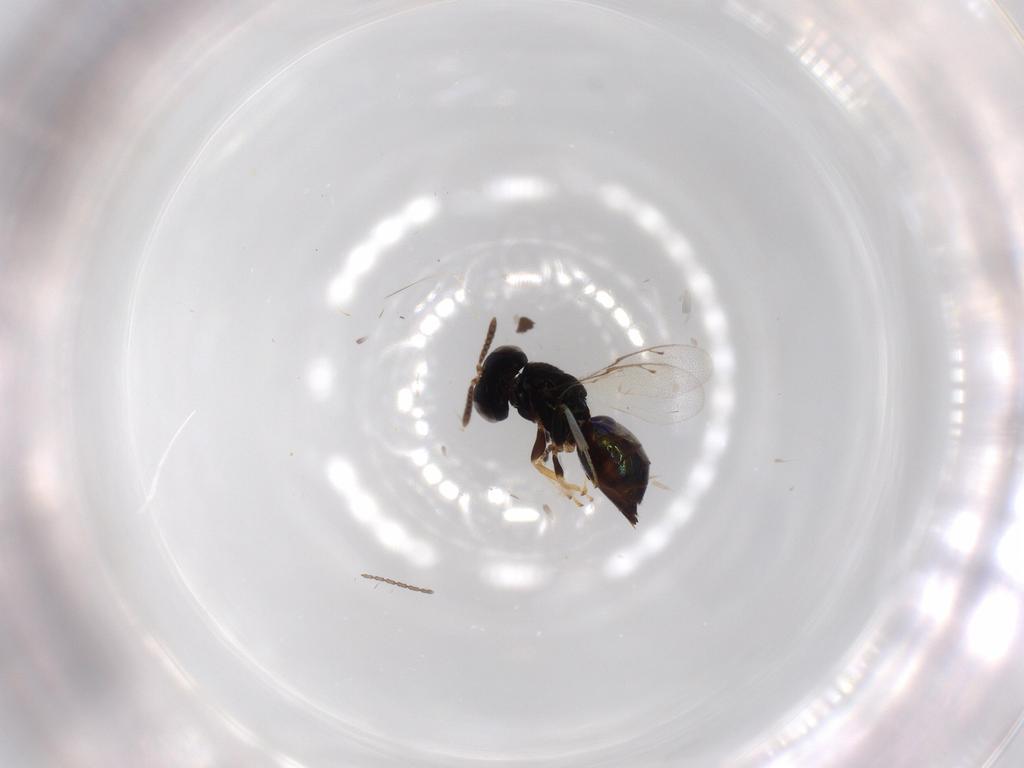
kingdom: Animalia
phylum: Arthropoda
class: Insecta
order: Hymenoptera
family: Pteromalidae
